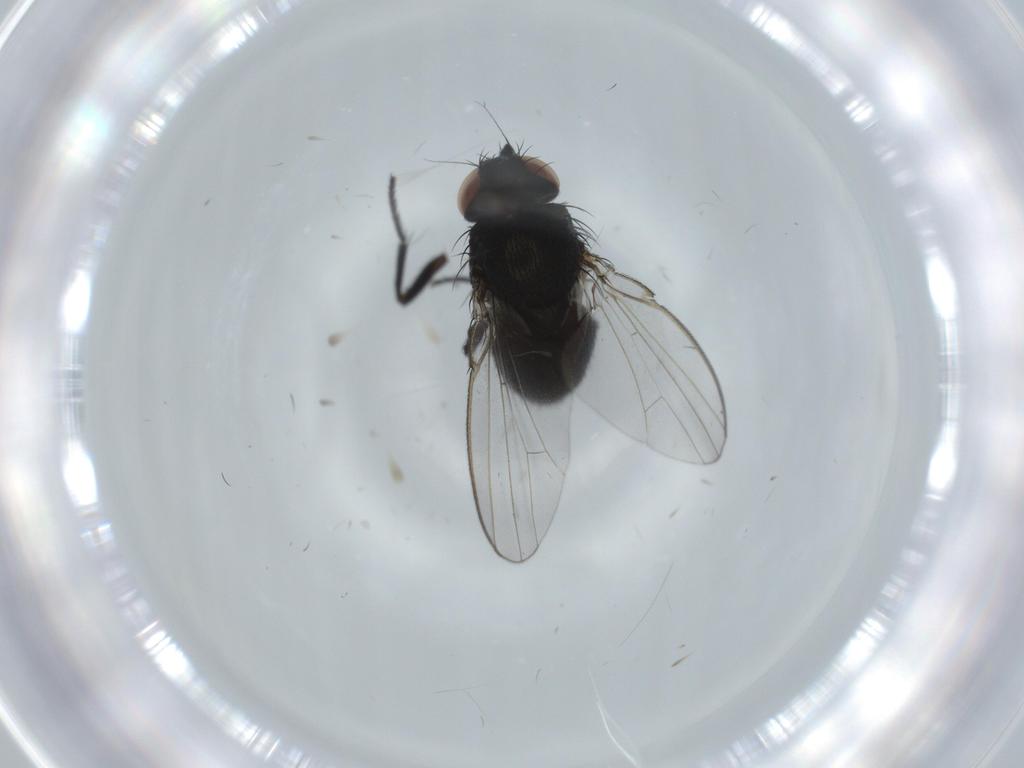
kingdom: Animalia
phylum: Arthropoda
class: Insecta
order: Diptera
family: Milichiidae
